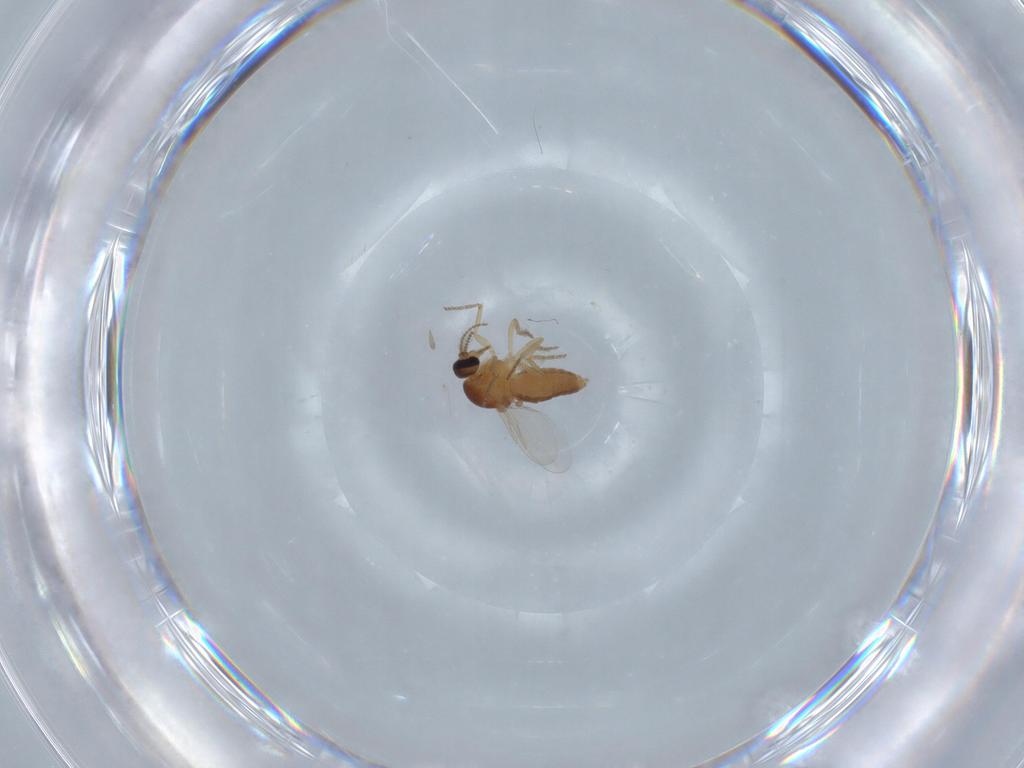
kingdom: Animalia
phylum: Arthropoda
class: Insecta
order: Diptera
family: Ceratopogonidae
